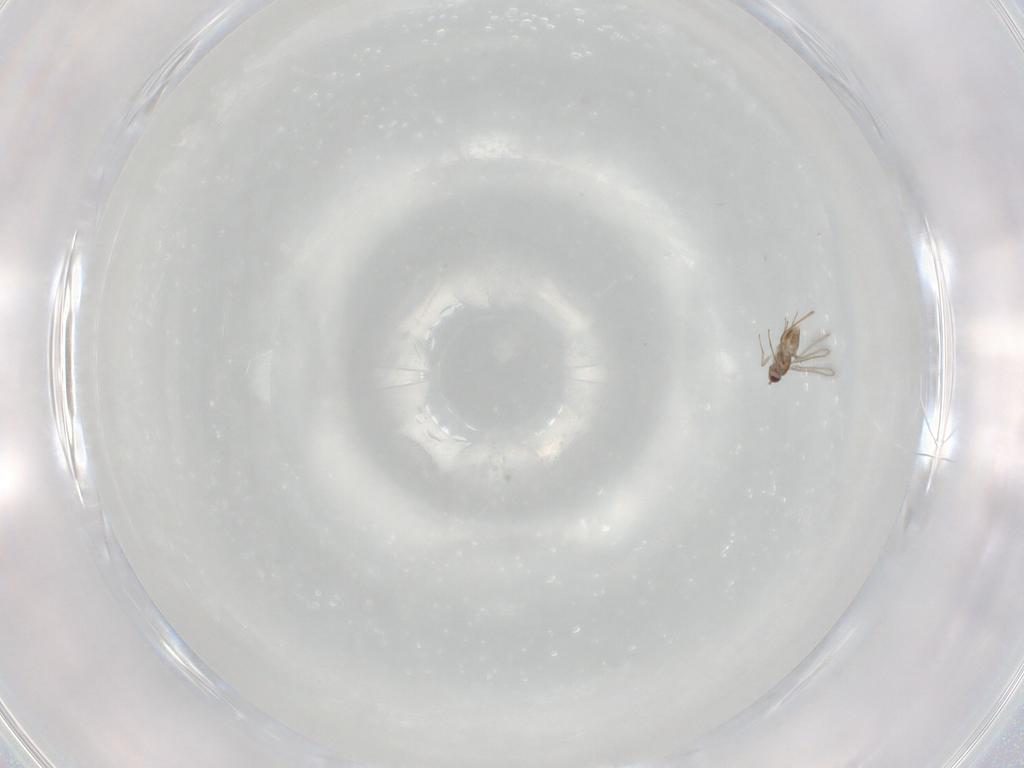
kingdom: Animalia
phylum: Arthropoda
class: Insecta
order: Hymenoptera
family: Mymaridae
